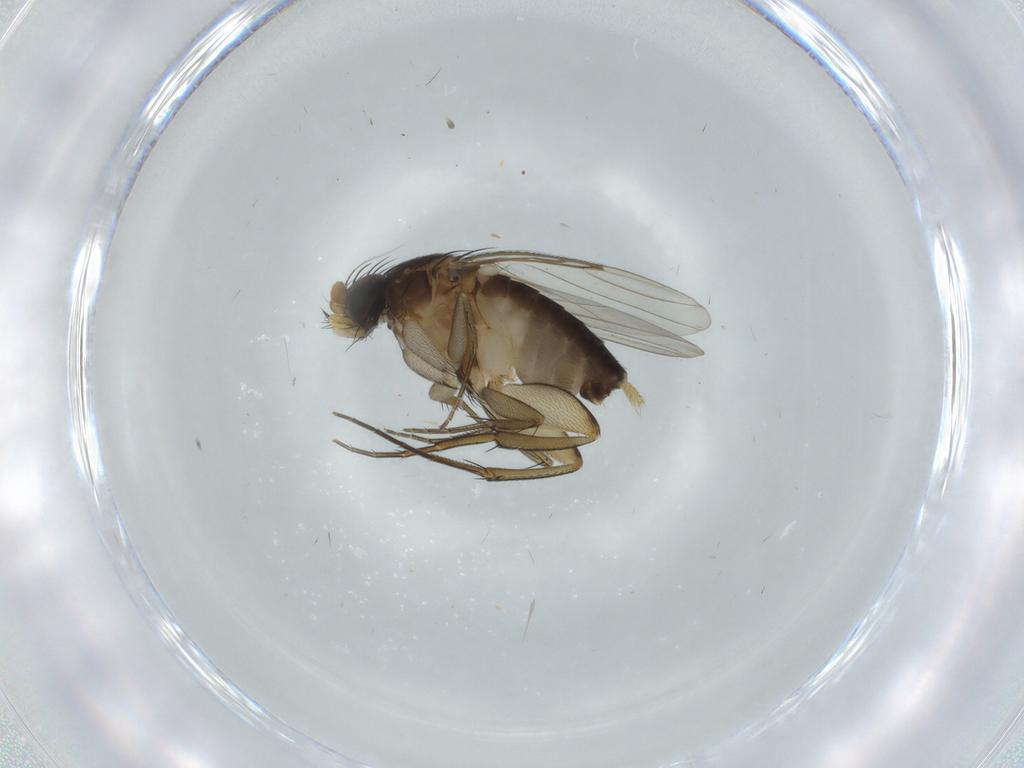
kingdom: Animalia
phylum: Arthropoda
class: Insecta
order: Diptera
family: Phoridae
